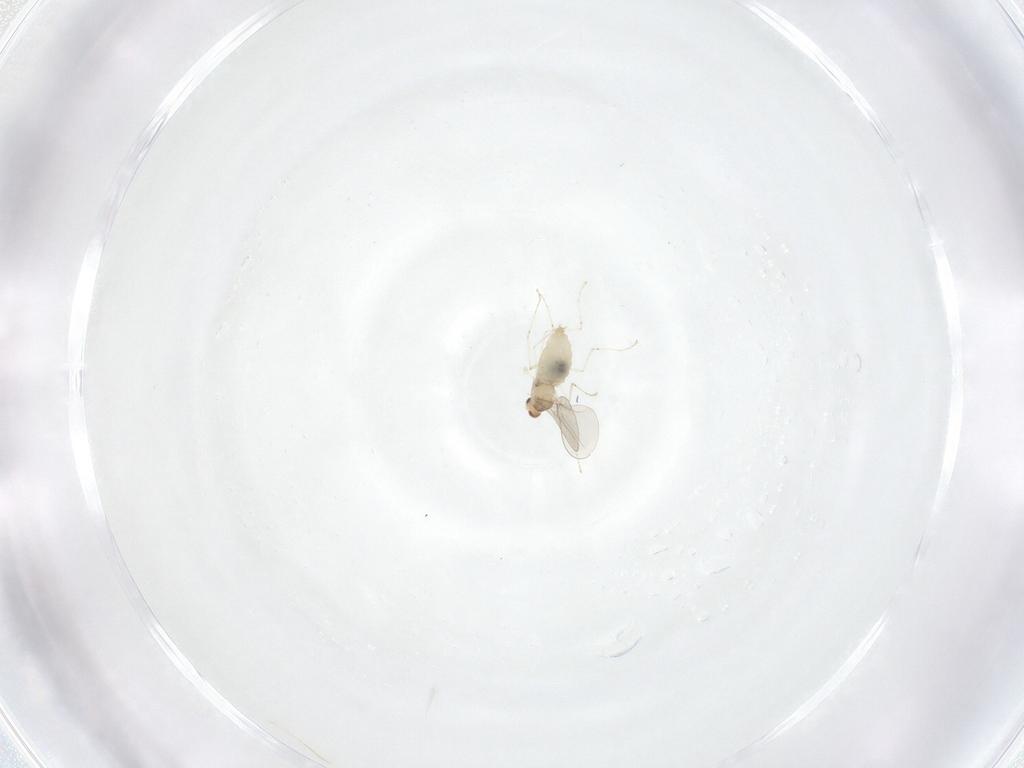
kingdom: Animalia
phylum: Arthropoda
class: Insecta
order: Diptera
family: Cecidomyiidae
